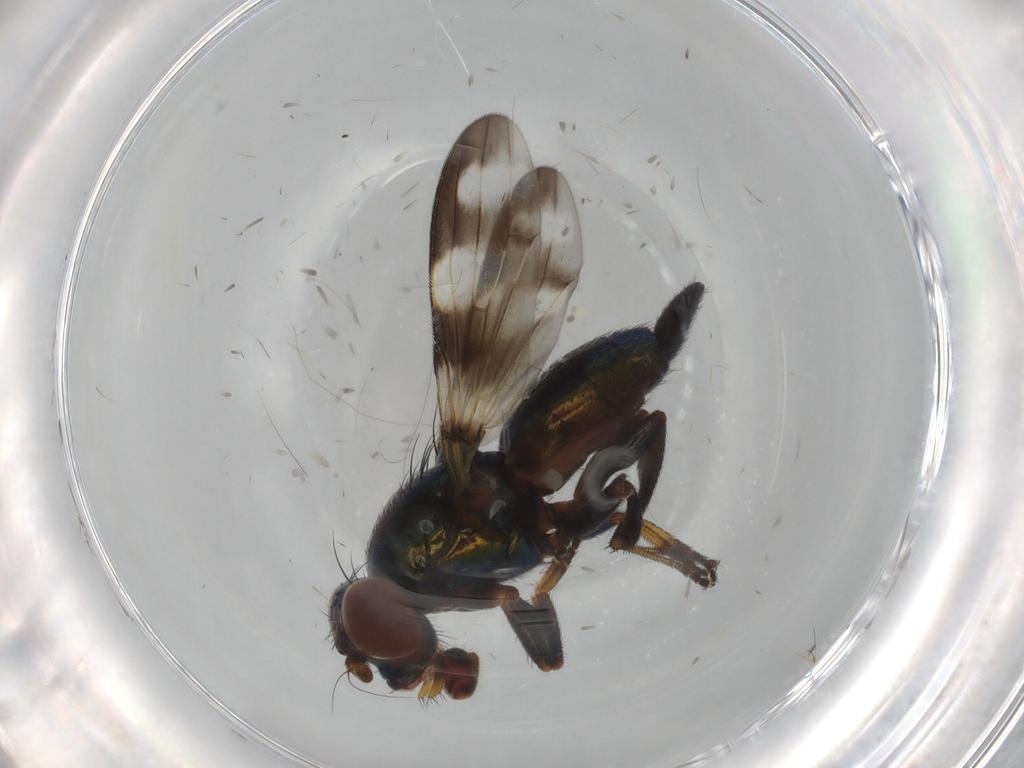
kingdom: Animalia
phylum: Arthropoda
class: Insecta
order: Diptera
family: Ulidiidae
